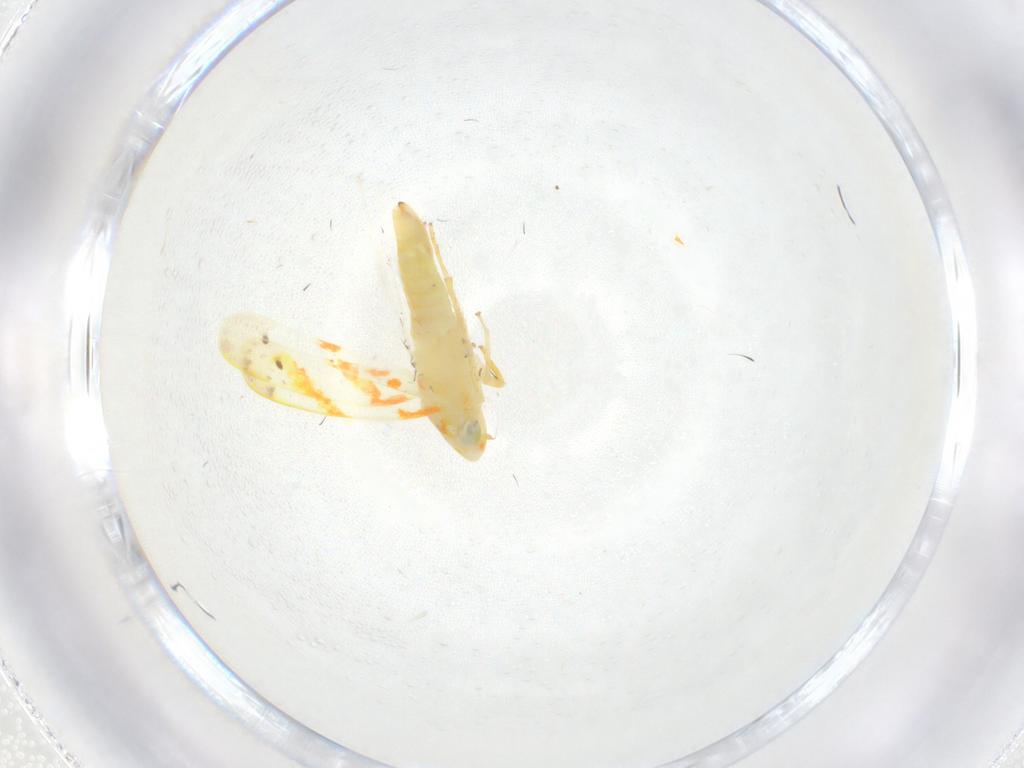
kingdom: Animalia
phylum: Arthropoda
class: Insecta
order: Hemiptera
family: Cicadellidae
